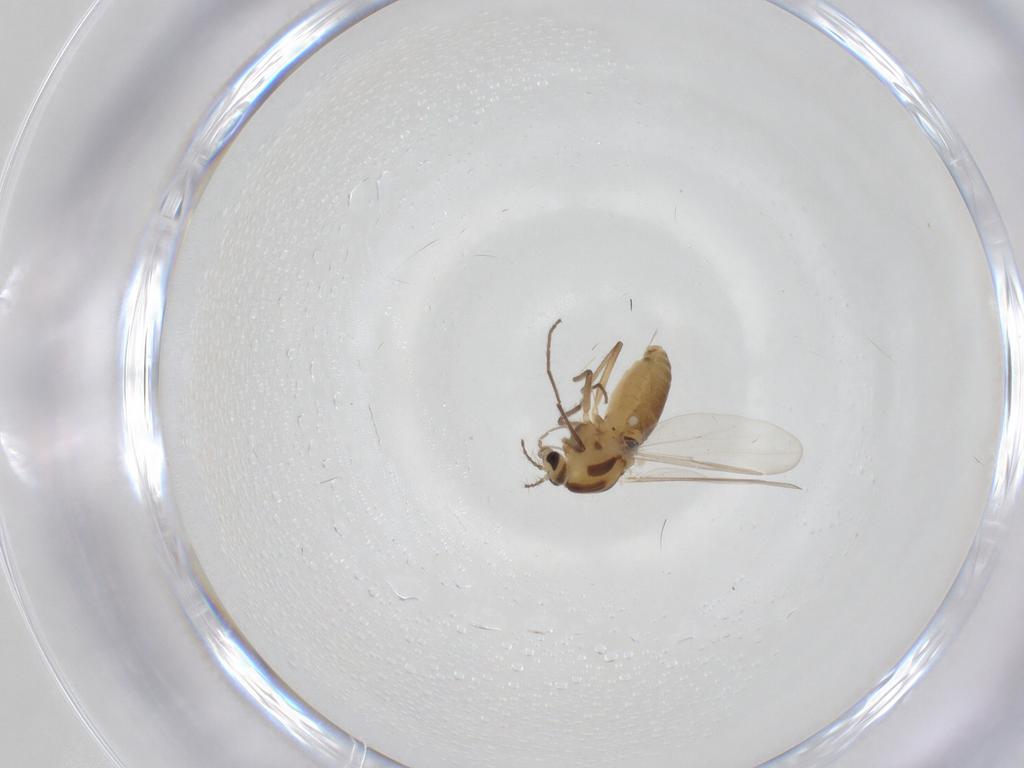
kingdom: Animalia
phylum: Arthropoda
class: Insecta
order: Diptera
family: Chironomidae
